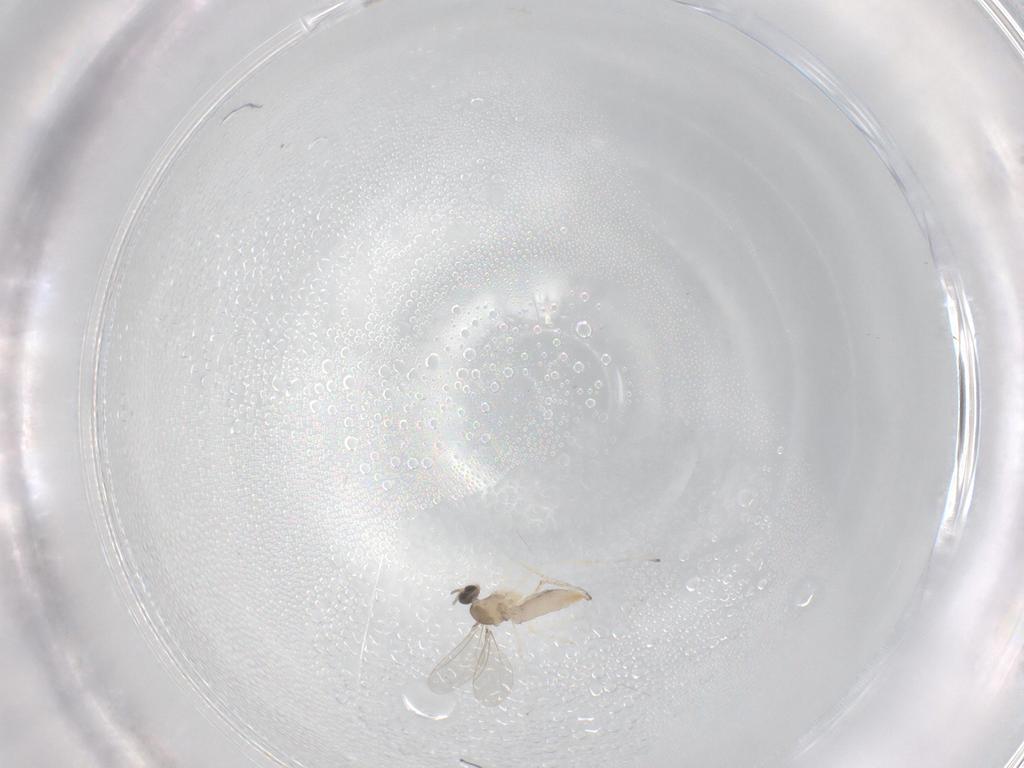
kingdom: Animalia
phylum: Arthropoda
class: Insecta
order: Diptera
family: Cecidomyiidae
